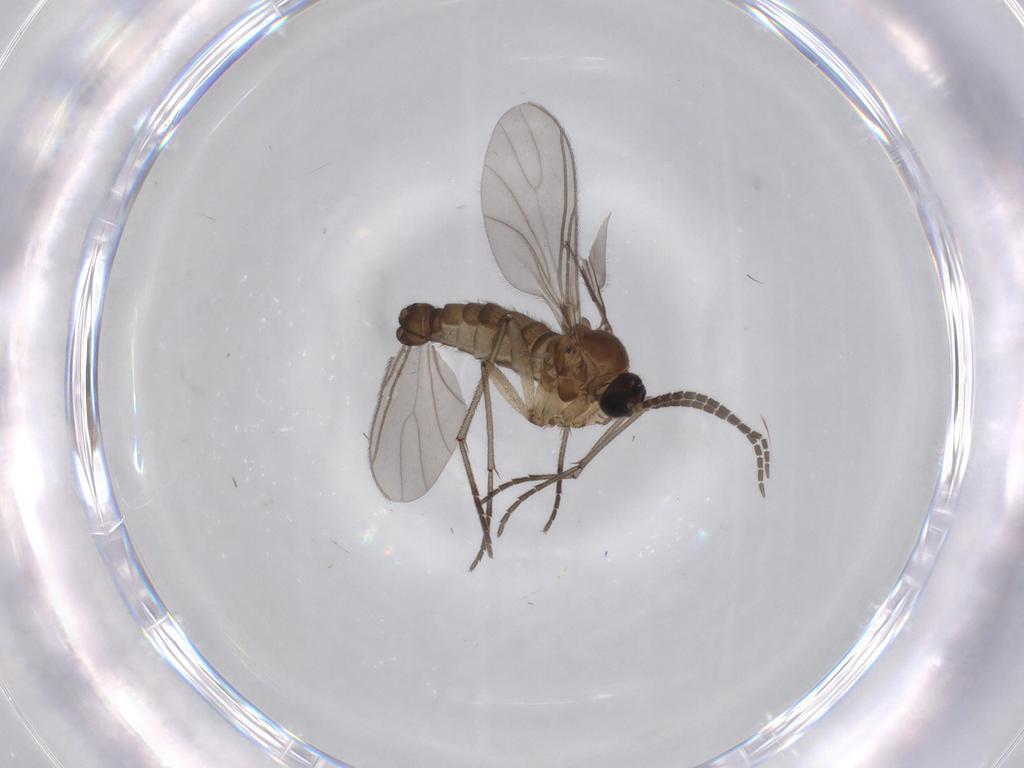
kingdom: Animalia
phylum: Arthropoda
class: Insecta
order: Diptera
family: Sciaridae
